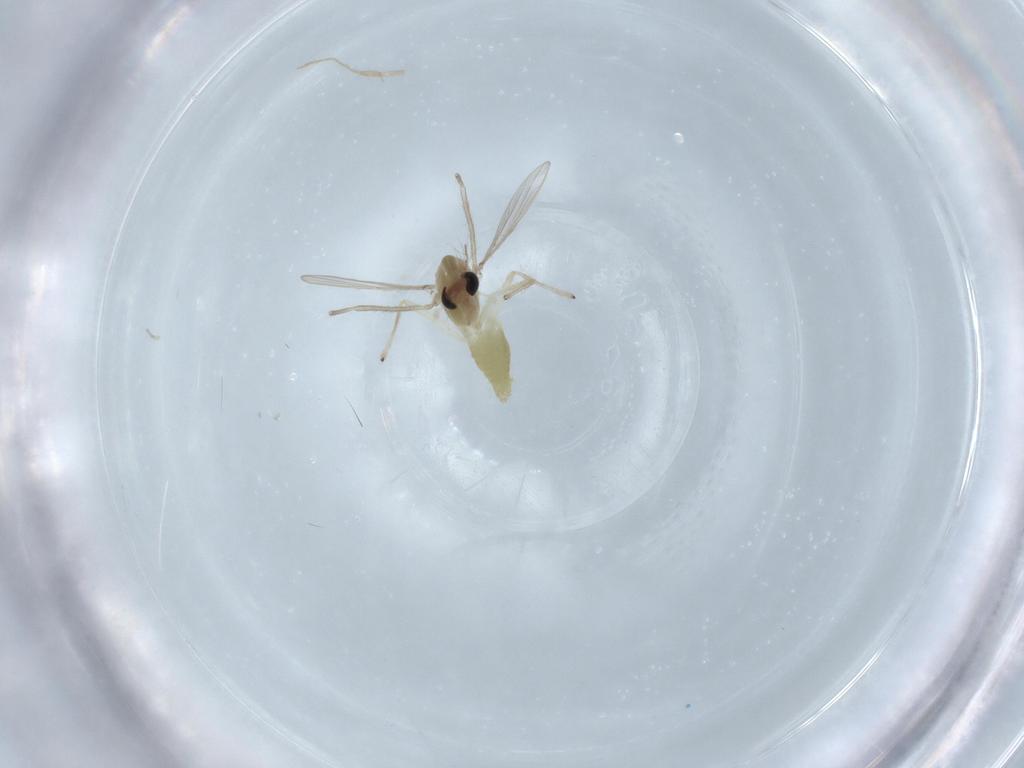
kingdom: Animalia
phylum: Arthropoda
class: Insecta
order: Diptera
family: Chironomidae
